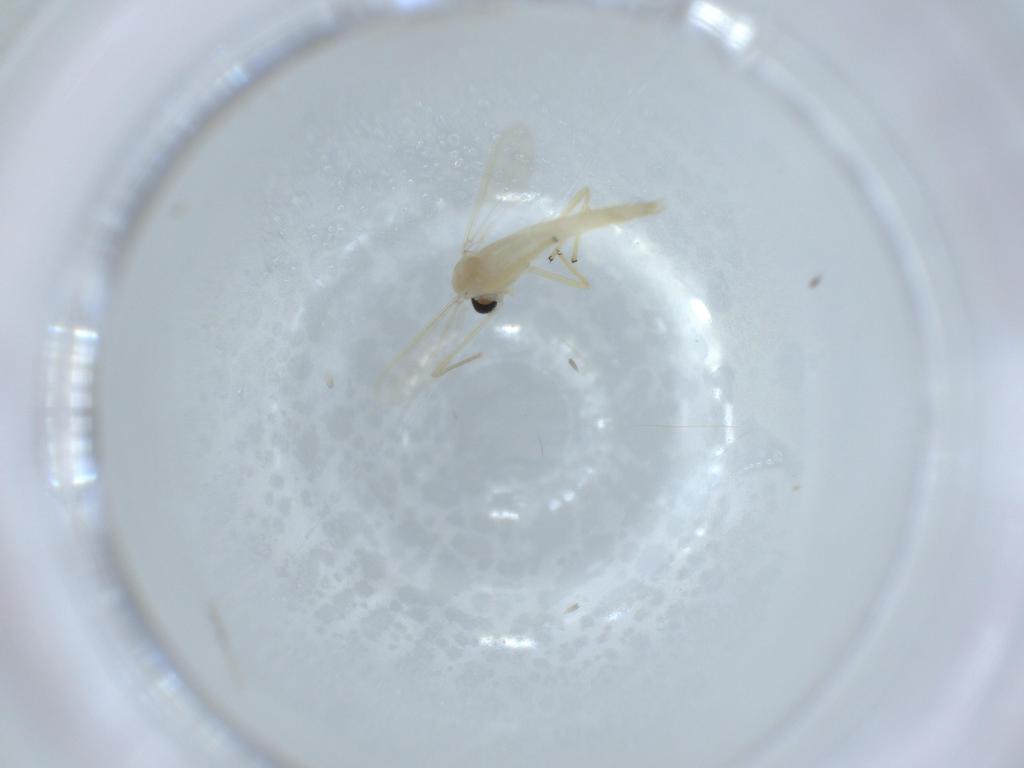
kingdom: Animalia
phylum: Arthropoda
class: Insecta
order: Diptera
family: Chironomidae
